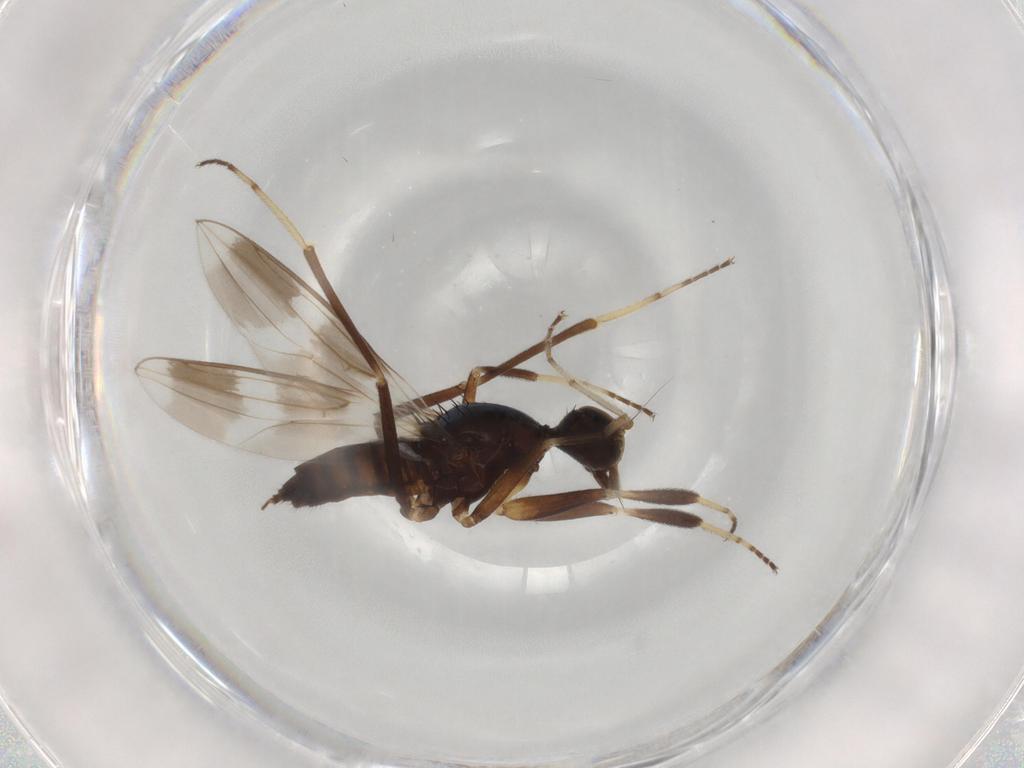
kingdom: Animalia
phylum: Arthropoda
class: Insecta
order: Diptera
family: Hybotidae
